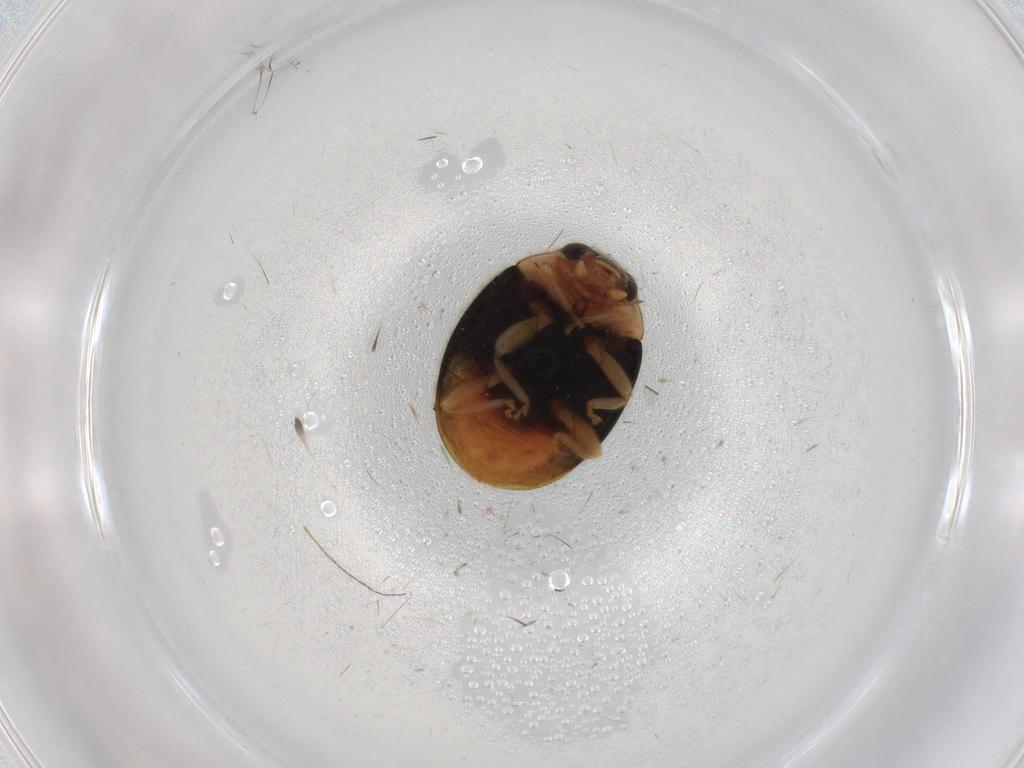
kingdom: Animalia
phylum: Arthropoda
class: Insecta
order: Coleoptera
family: Coccinellidae
